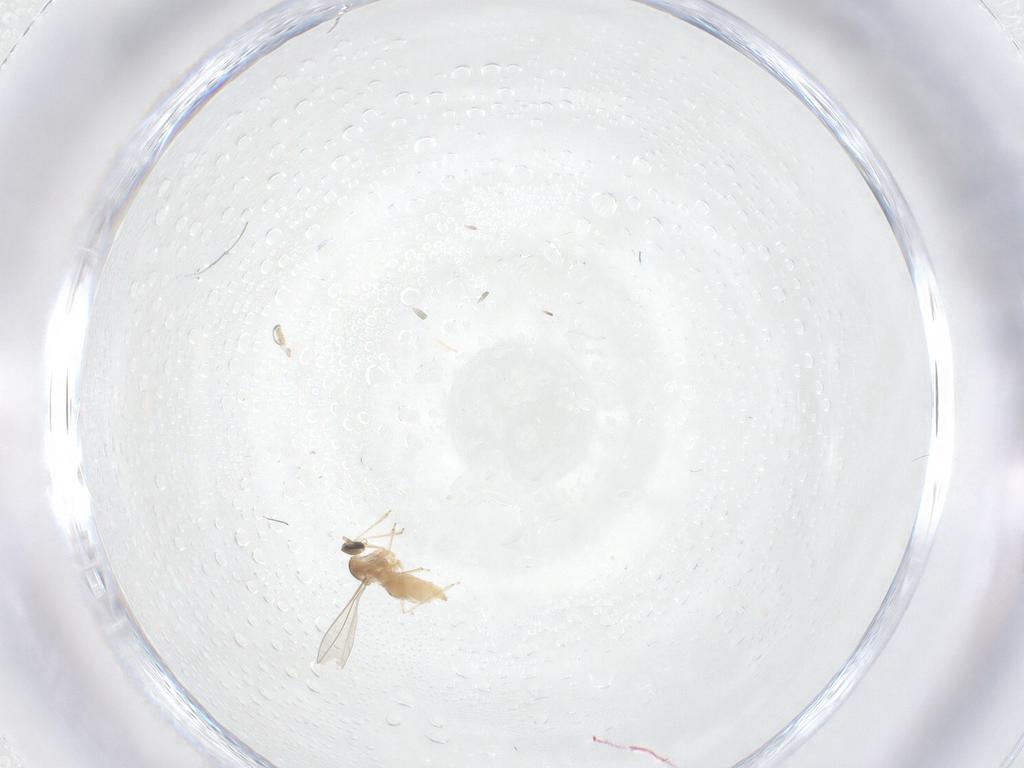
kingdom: Animalia
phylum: Arthropoda
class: Insecta
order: Diptera
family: Cecidomyiidae
